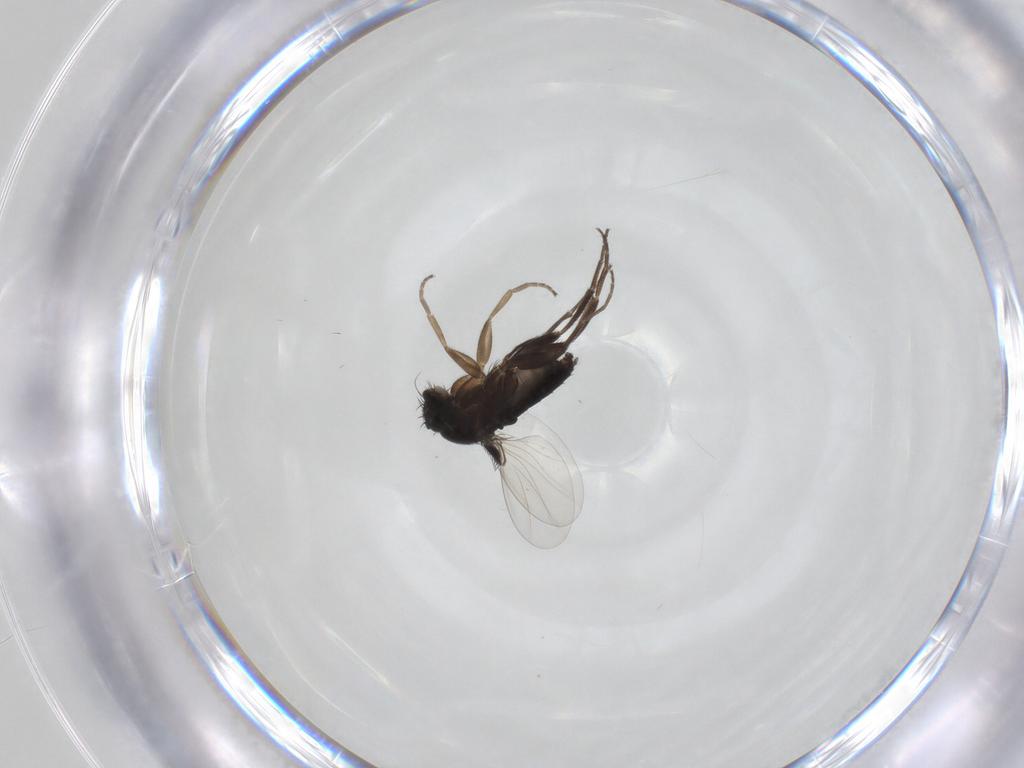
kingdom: Animalia
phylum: Arthropoda
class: Insecta
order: Diptera
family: Phoridae
